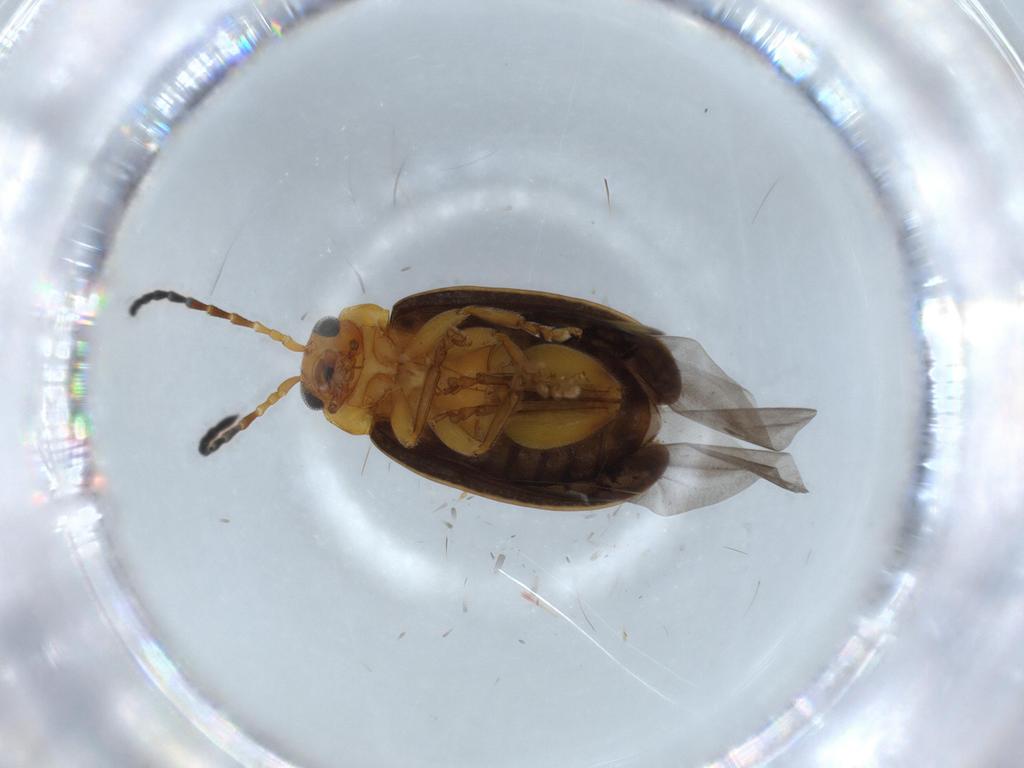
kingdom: Animalia
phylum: Arthropoda
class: Insecta
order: Coleoptera
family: Chrysomelidae
